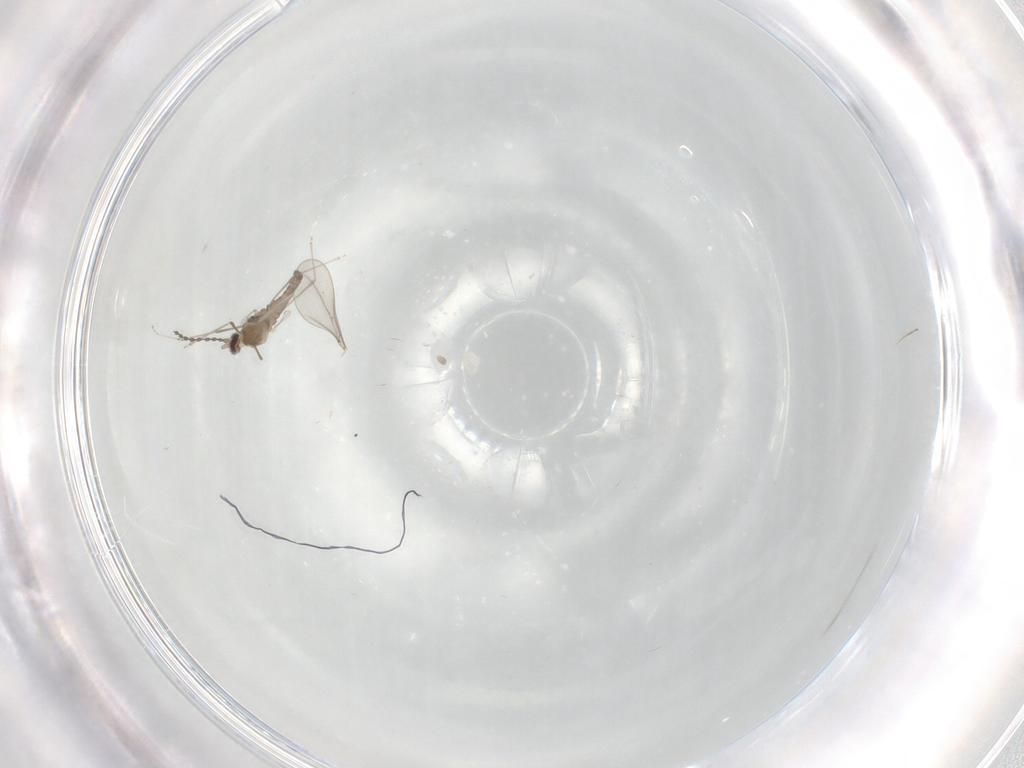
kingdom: Animalia
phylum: Arthropoda
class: Insecta
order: Diptera
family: Cecidomyiidae
